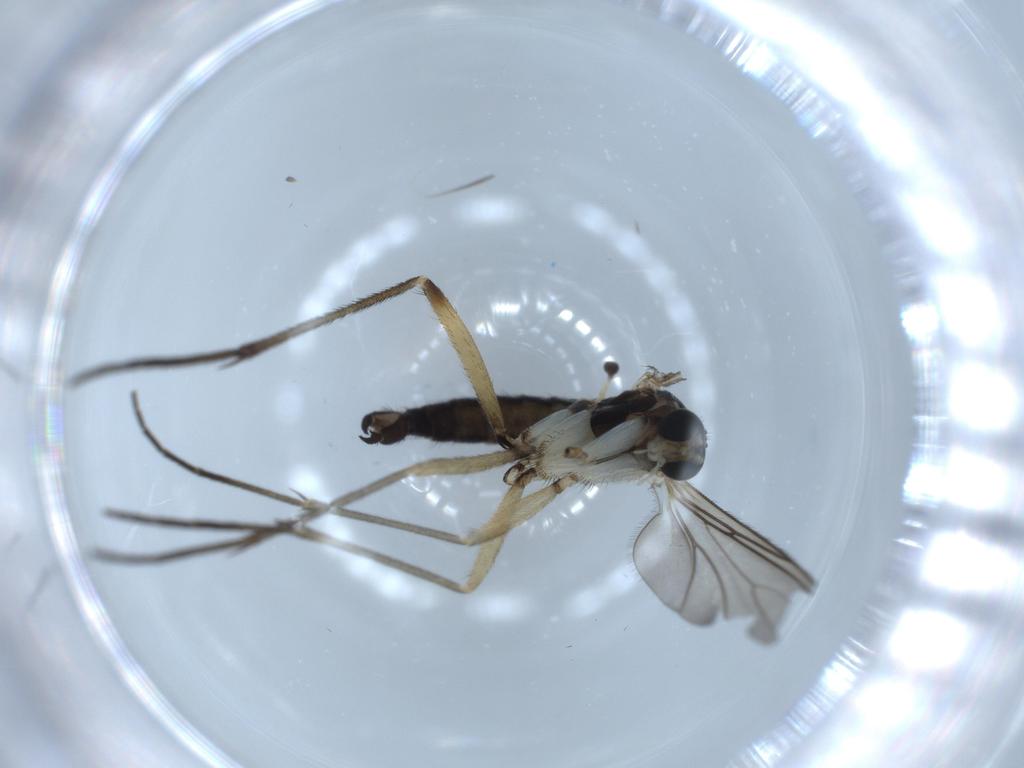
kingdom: Animalia
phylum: Arthropoda
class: Insecta
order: Diptera
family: Sciaridae
